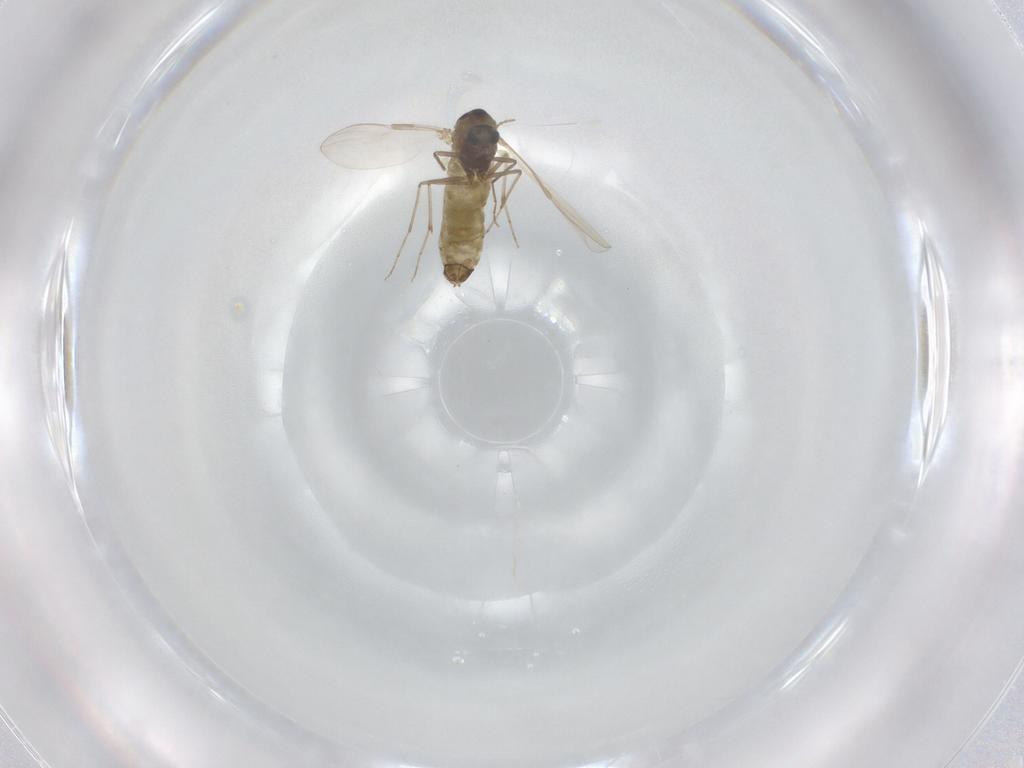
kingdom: Animalia
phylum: Arthropoda
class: Insecta
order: Diptera
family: Chironomidae
